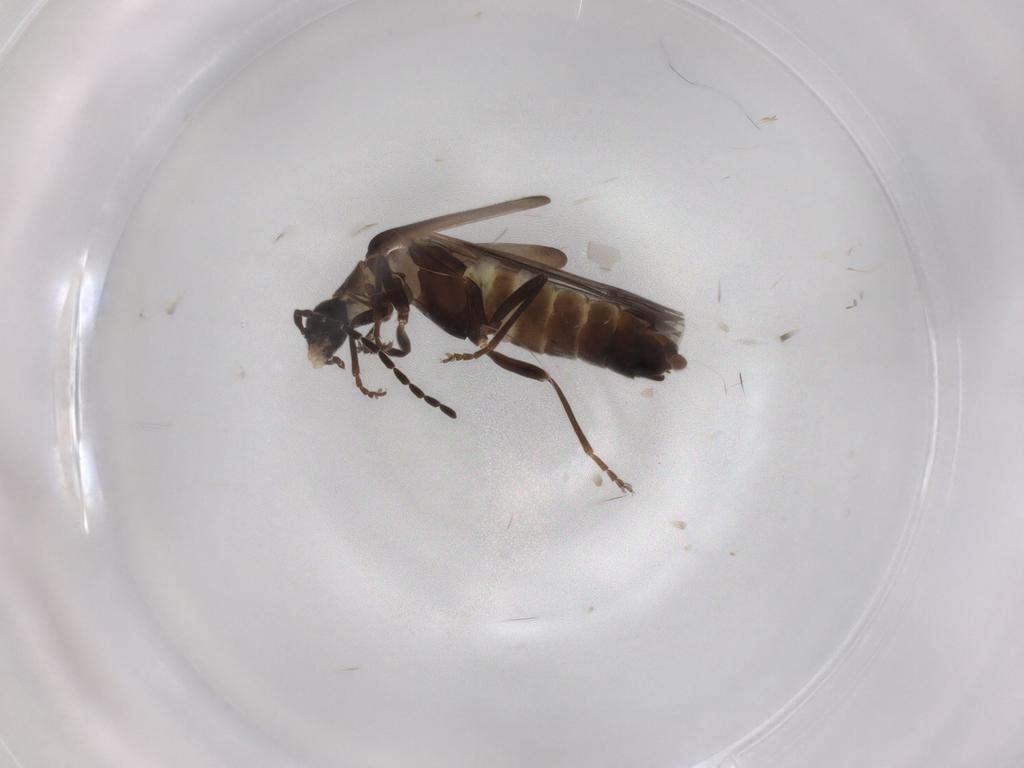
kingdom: Animalia
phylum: Arthropoda
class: Insecta
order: Coleoptera
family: Cantharidae
